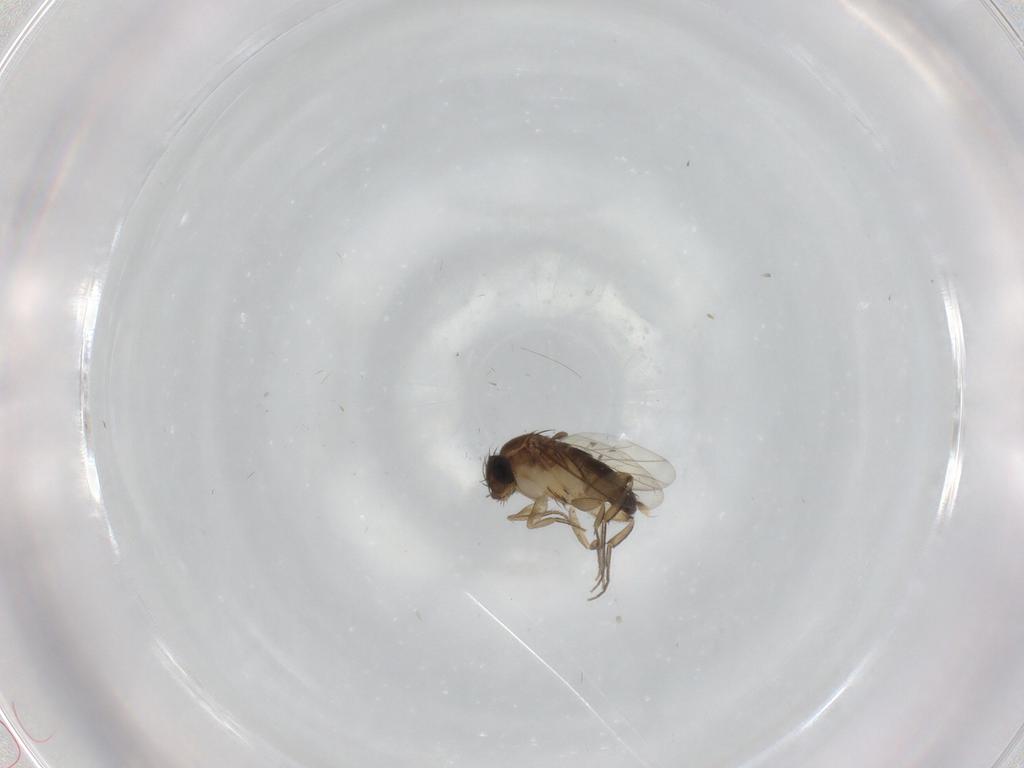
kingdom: Animalia
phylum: Arthropoda
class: Insecta
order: Diptera
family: Phoridae
